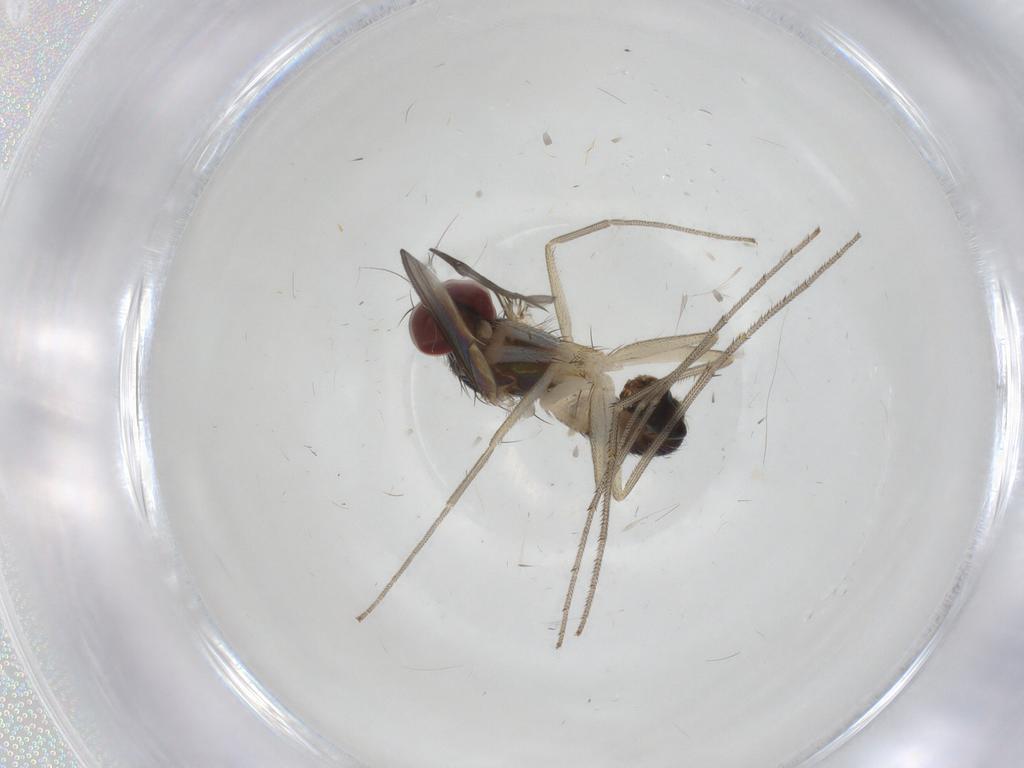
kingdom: Animalia
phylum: Arthropoda
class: Insecta
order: Diptera
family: Dolichopodidae
